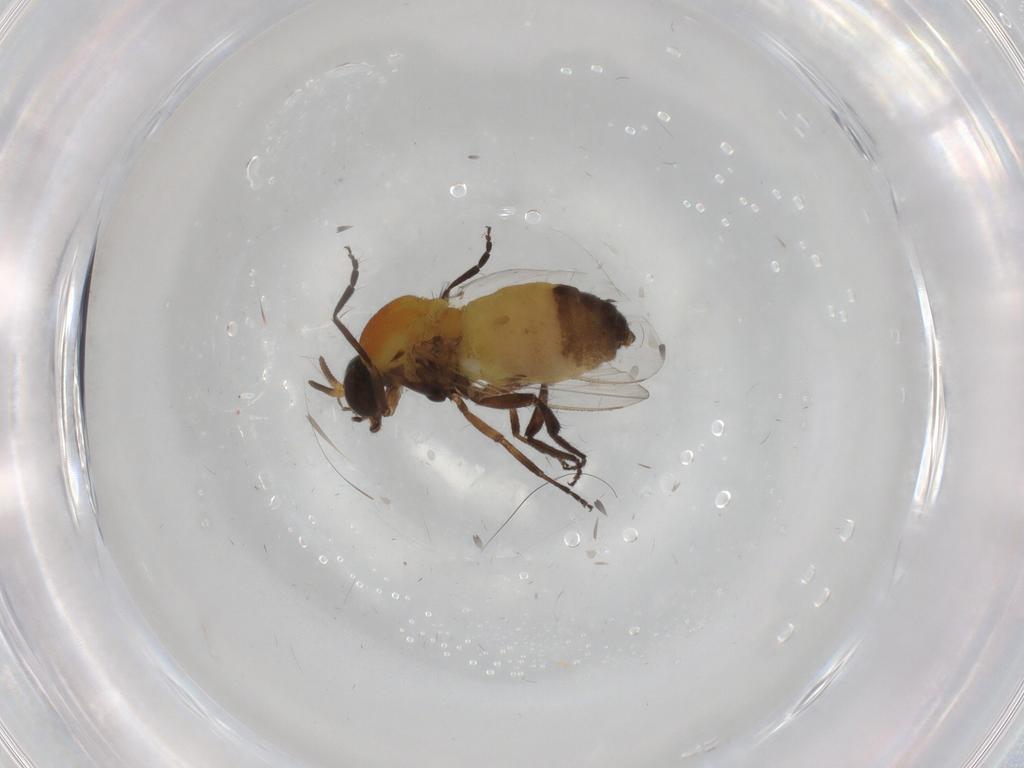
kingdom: Animalia
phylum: Arthropoda
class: Insecta
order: Diptera
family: Phoridae
